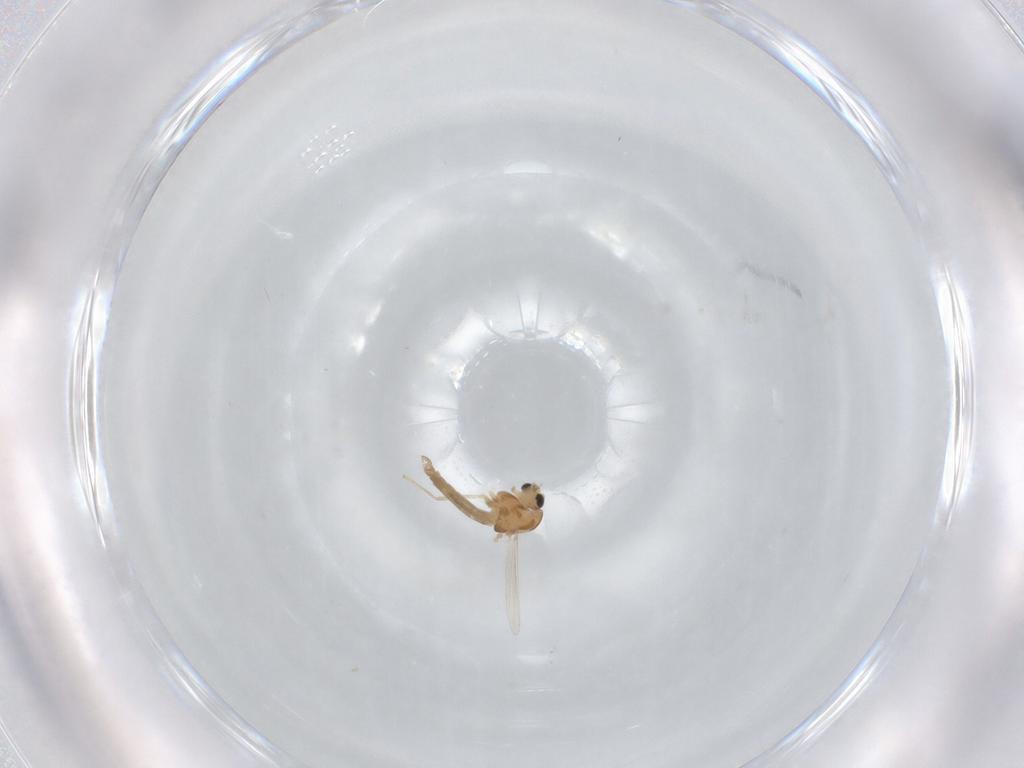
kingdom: Animalia
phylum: Arthropoda
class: Insecta
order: Diptera
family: Chironomidae
